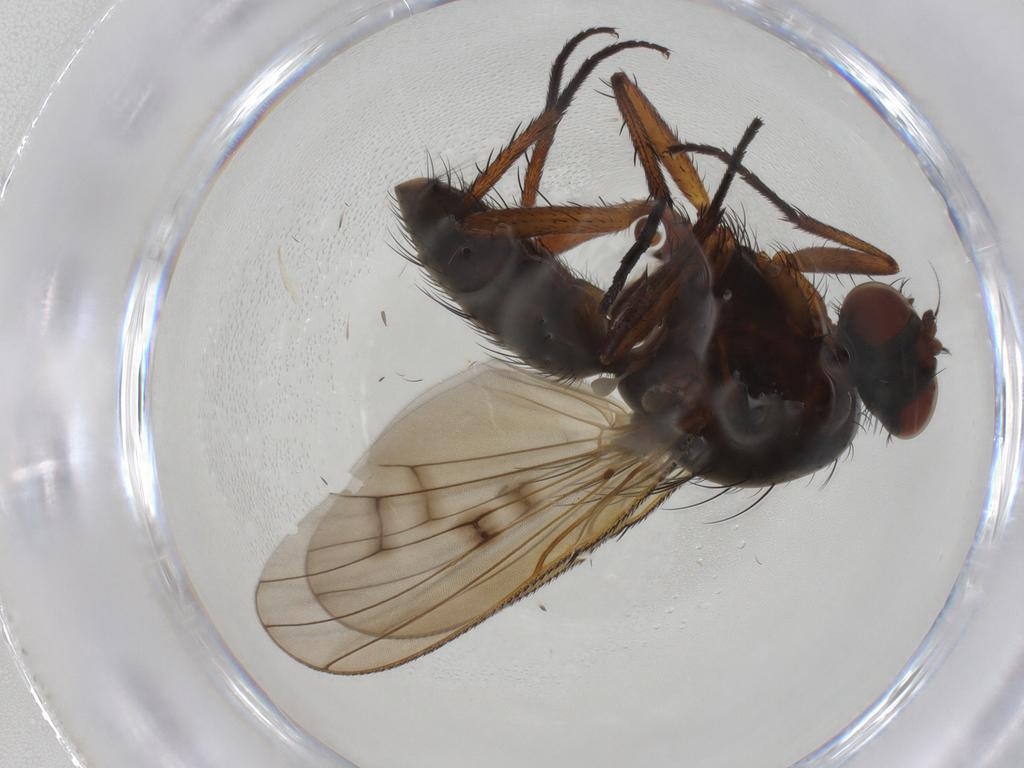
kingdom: Animalia
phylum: Arthropoda
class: Insecta
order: Diptera
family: Anthomyiidae
